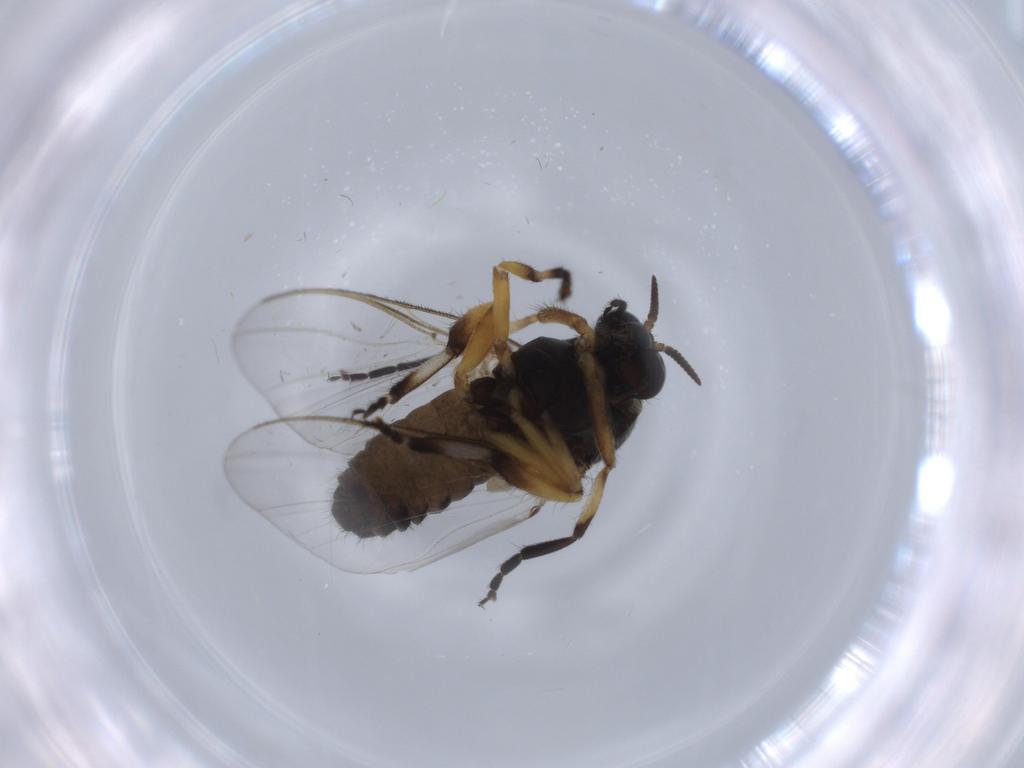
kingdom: Animalia
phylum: Arthropoda
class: Insecta
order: Diptera
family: Simuliidae
